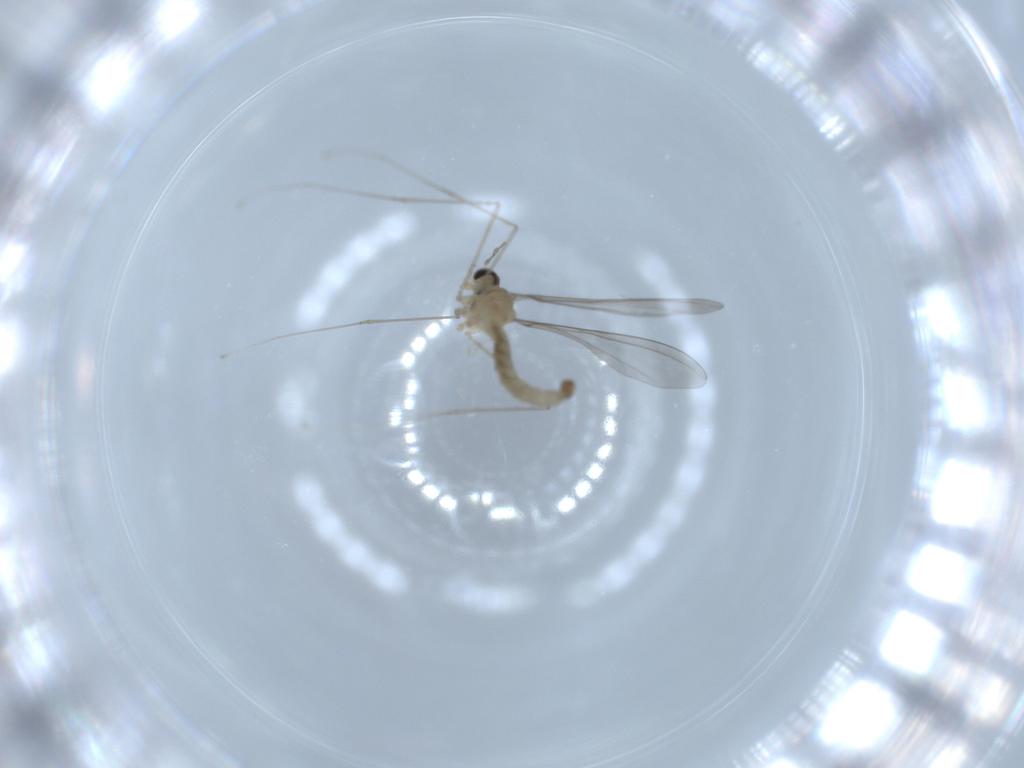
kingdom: Animalia
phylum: Arthropoda
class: Insecta
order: Diptera
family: Cecidomyiidae
